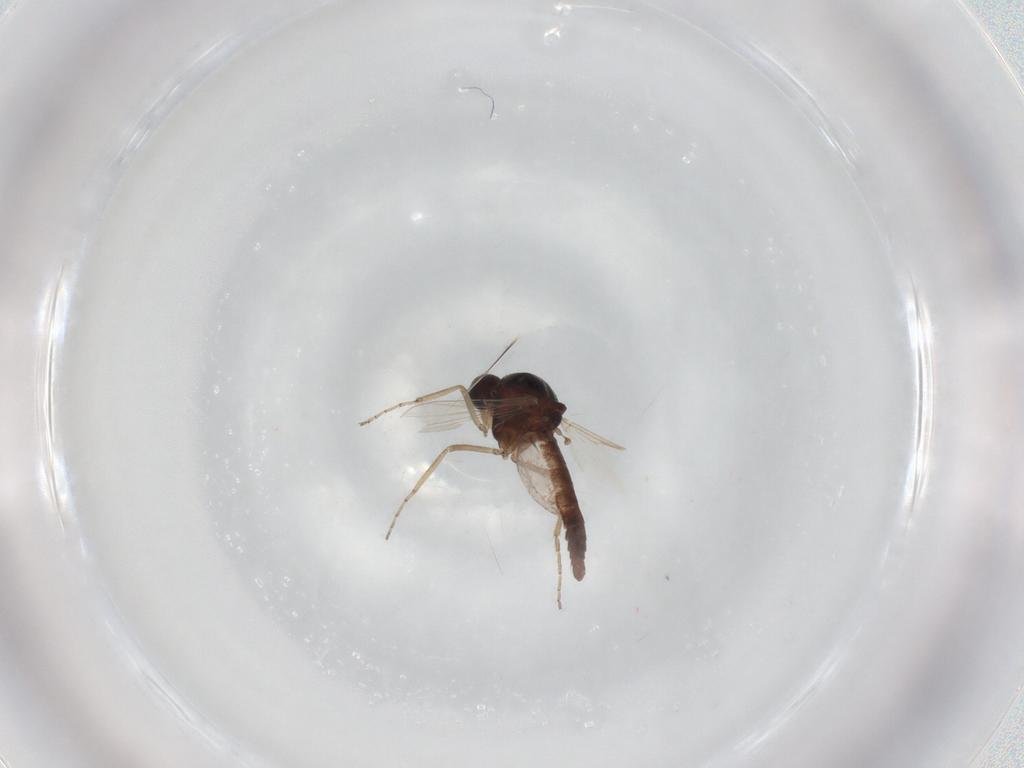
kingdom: Animalia
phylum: Arthropoda
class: Insecta
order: Diptera
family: Ceratopogonidae
